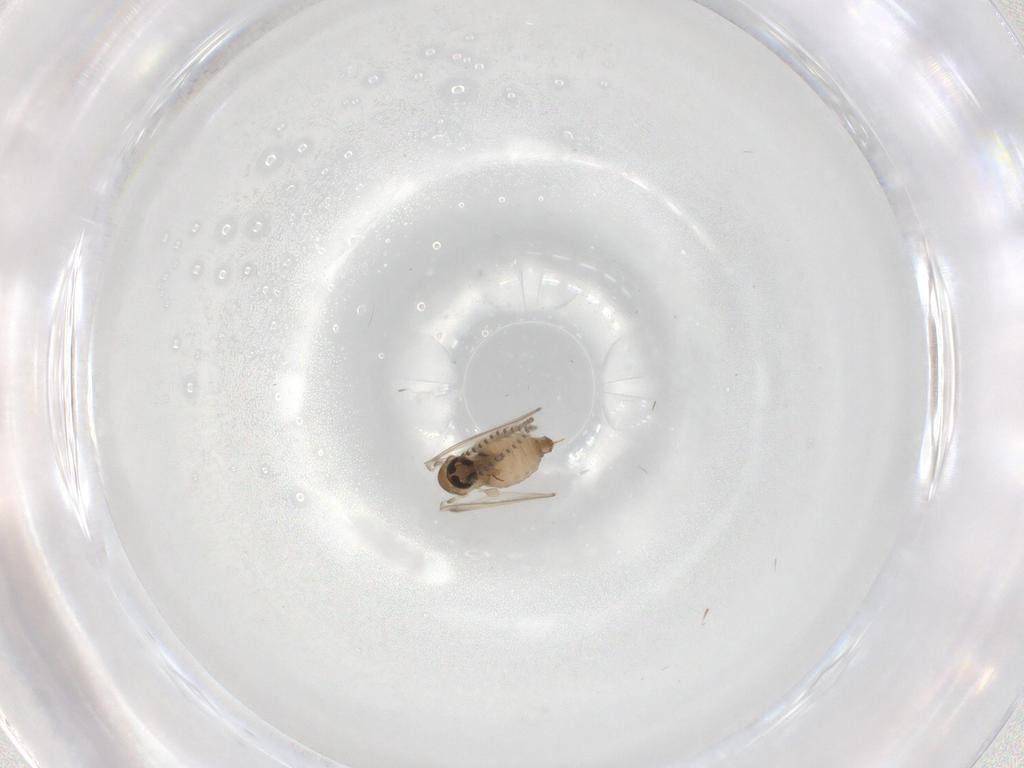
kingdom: Animalia
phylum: Arthropoda
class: Insecta
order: Diptera
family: Psychodidae
